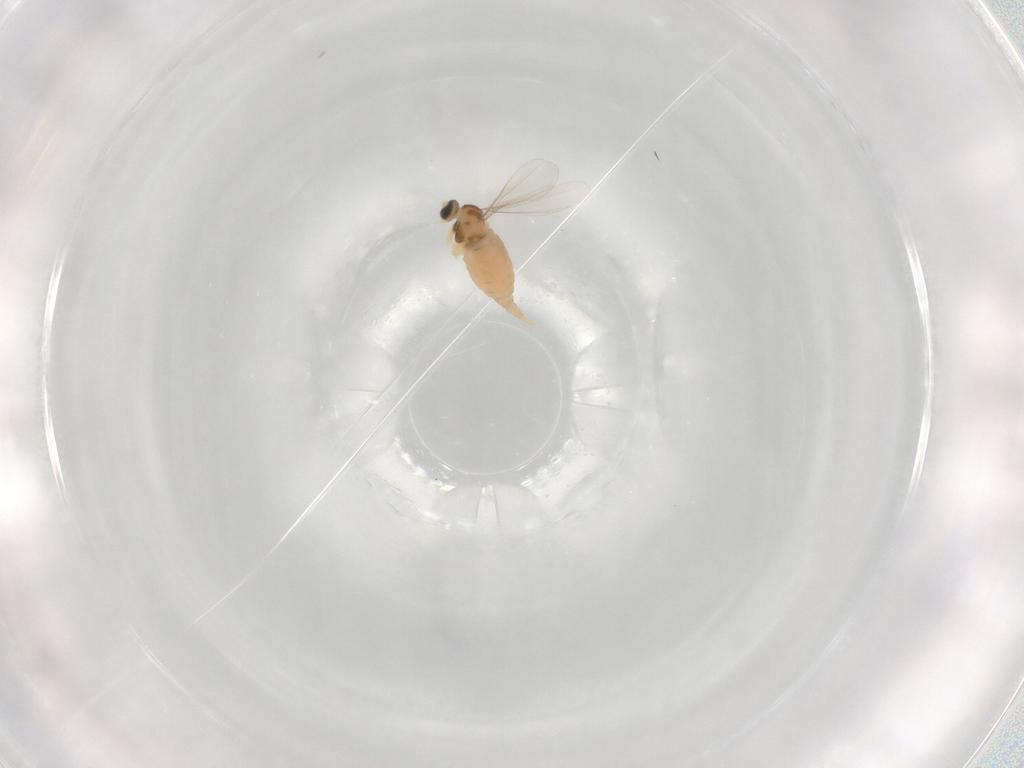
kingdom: Animalia
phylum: Arthropoda
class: Insecta
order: Diptera
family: Cecidomyiidae
